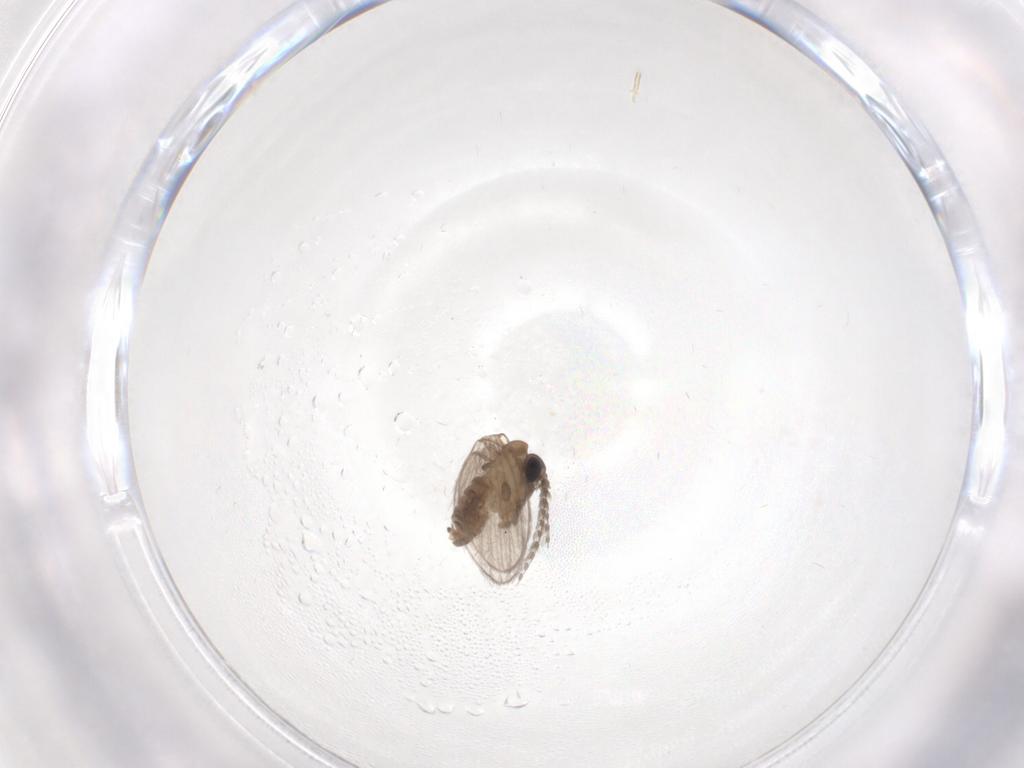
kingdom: Animalia
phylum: Arthropoda
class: Insecta
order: Diptera
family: Psychodidae
